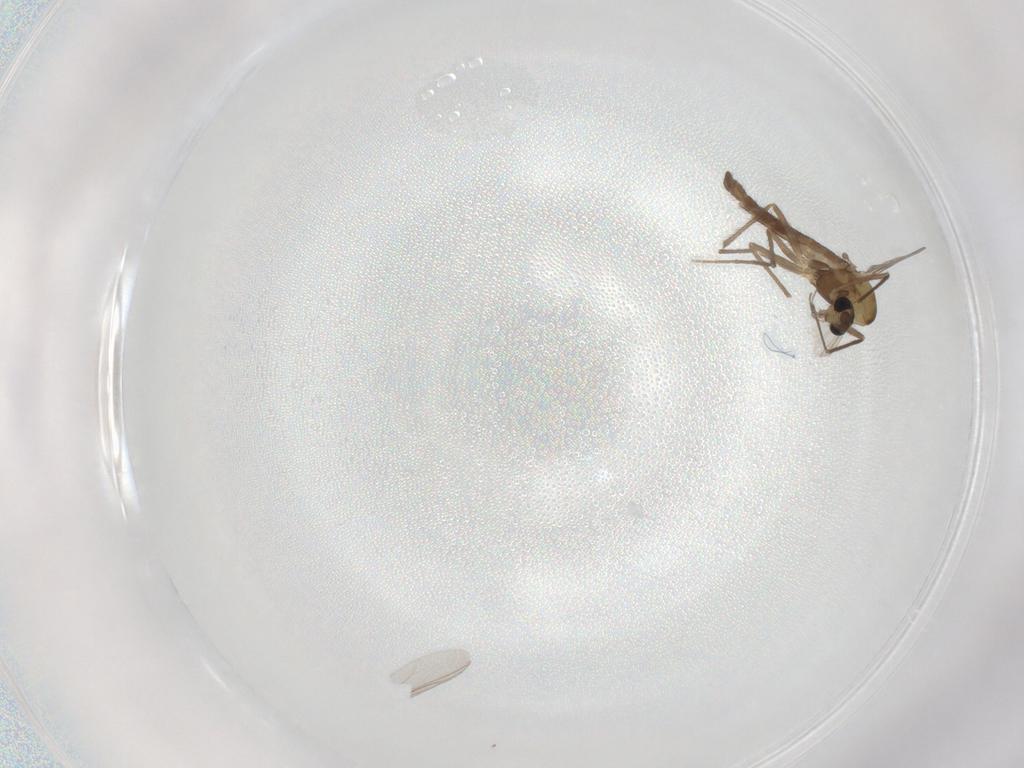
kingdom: Animalia
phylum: Arthropoda
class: Insecta
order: Diptera
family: Chironomidae
